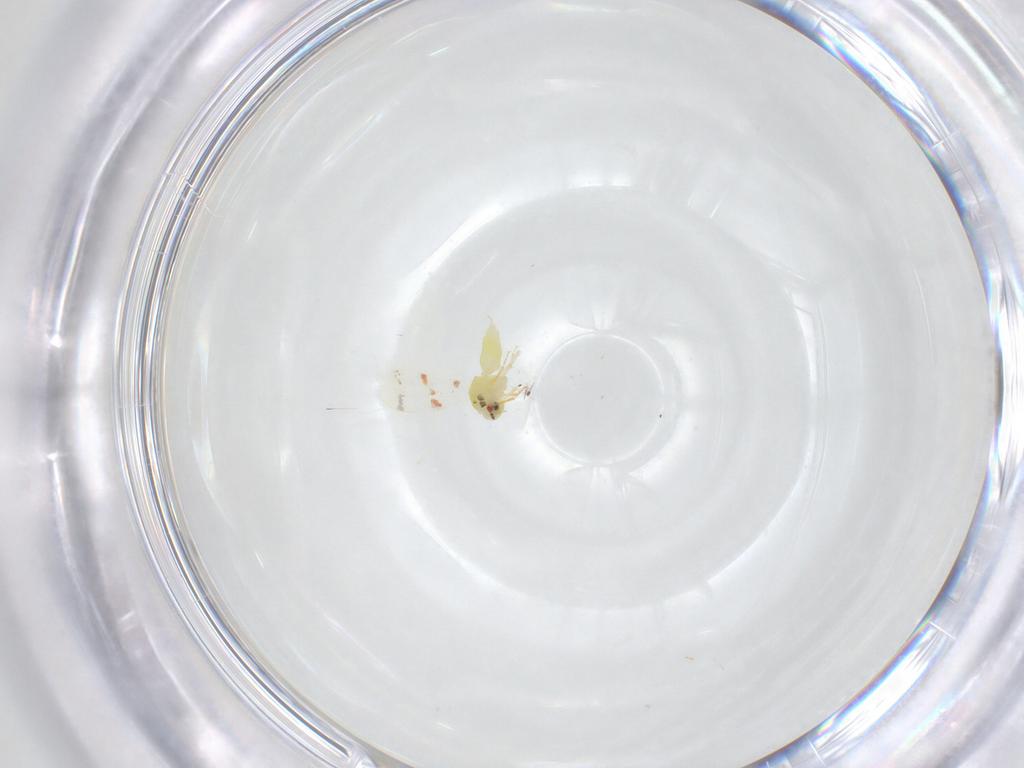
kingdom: Animalia
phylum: Arthropoda
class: Insecta
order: Hemiptera
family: Aleyrodidae
